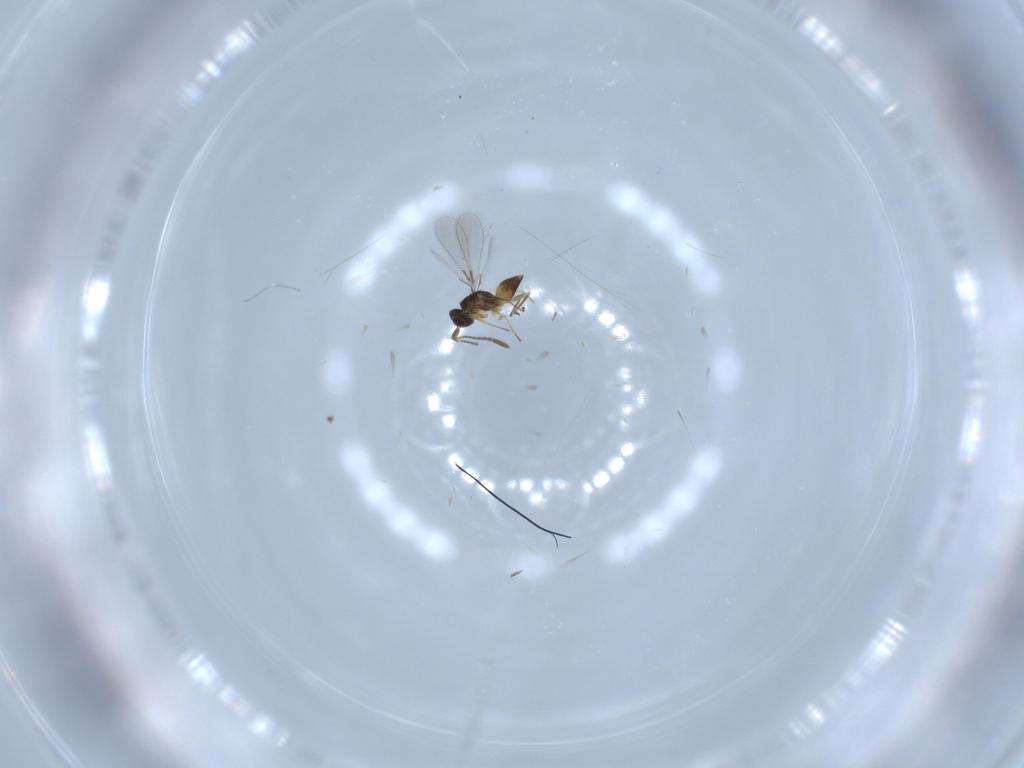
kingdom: Animalia
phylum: Arthropoda
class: Insecta
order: Hymenoptera
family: Mymaridae
